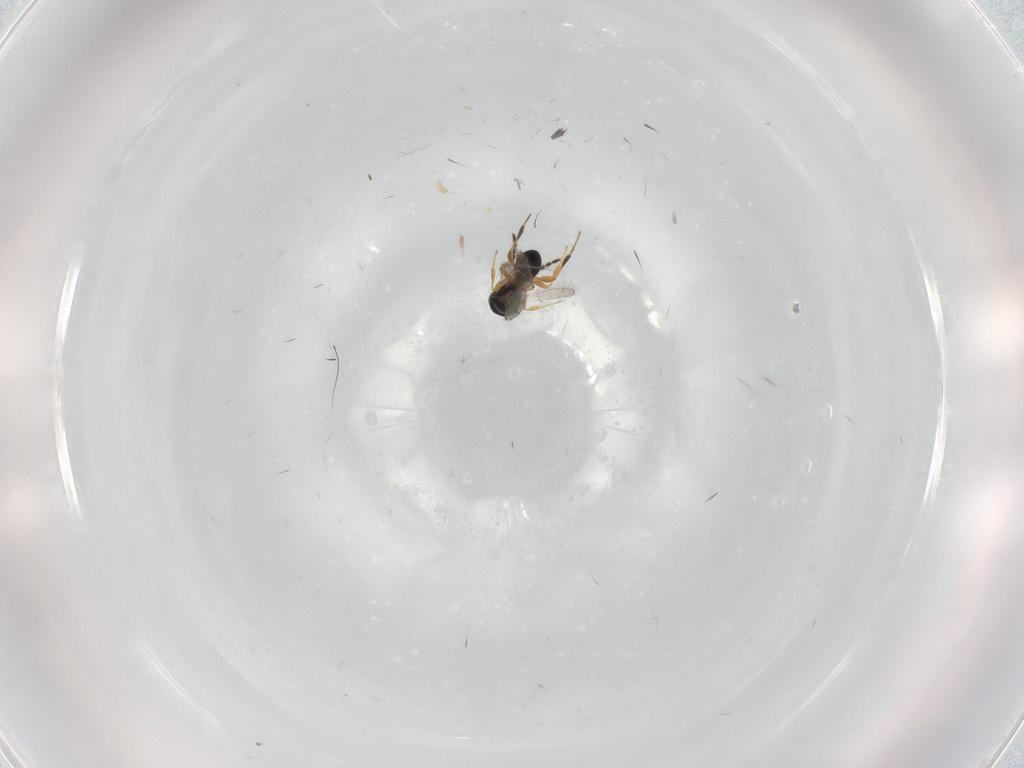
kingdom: Animalia
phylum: Arthropoda
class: Insecta
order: Hymenoptera
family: Platygastridae
